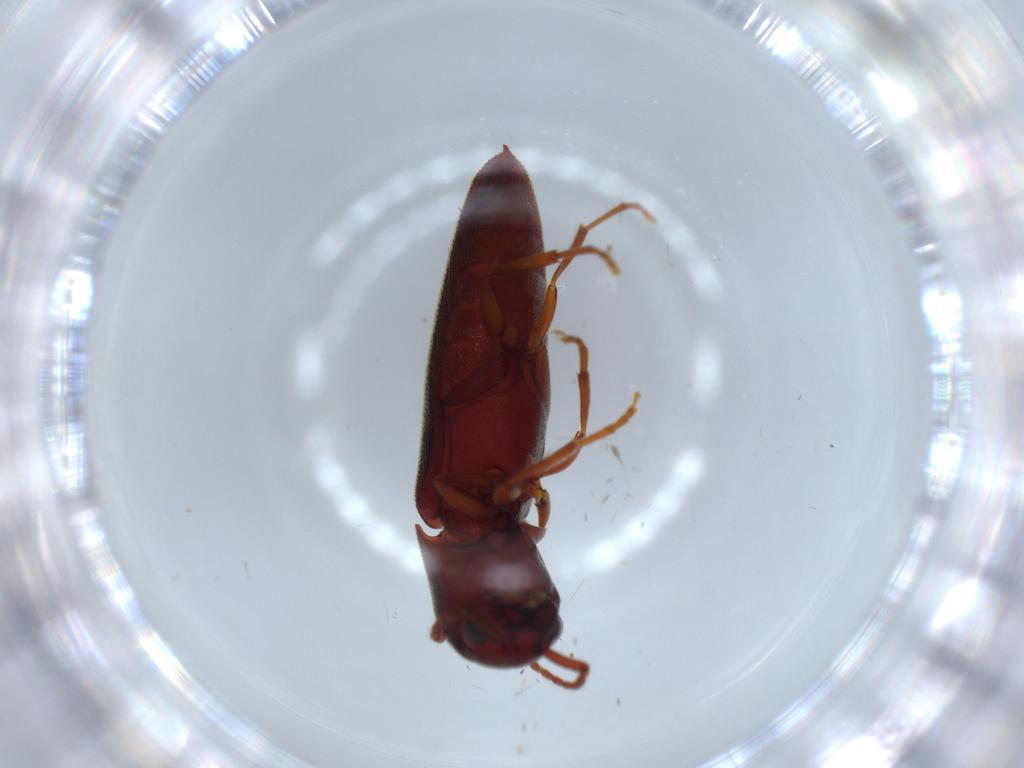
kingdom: Animalia
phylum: Arthropoda
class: Insecta
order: Coleoptera
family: Eucnemidae
